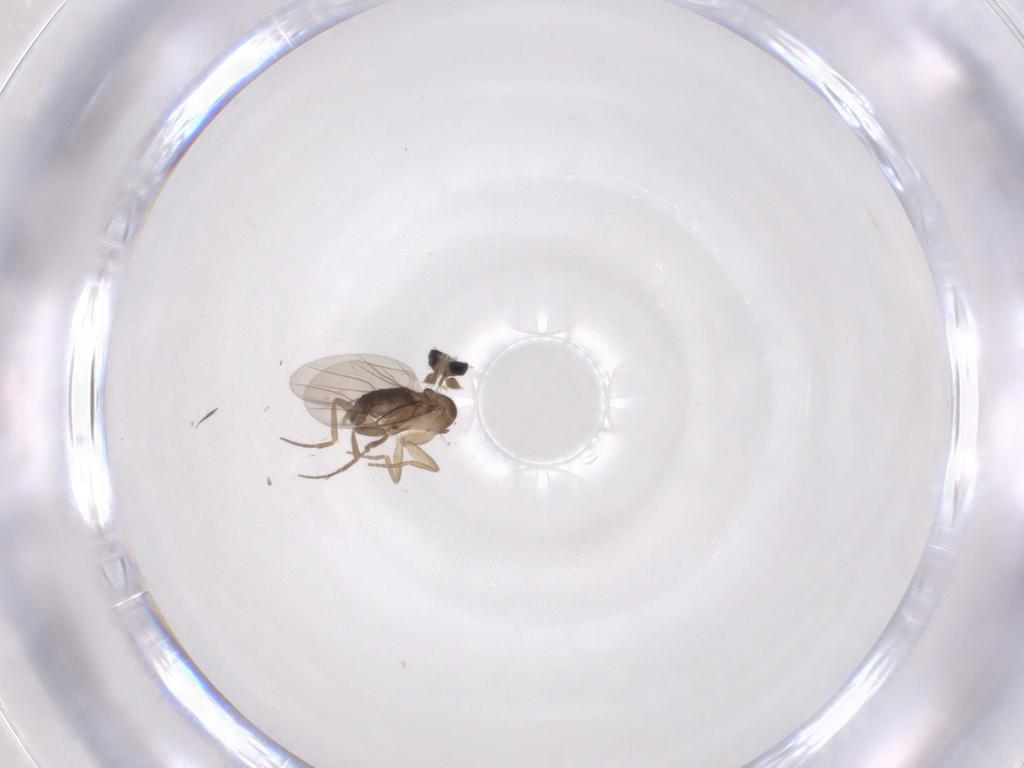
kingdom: Animalia
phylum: Arthropoda
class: Insecta
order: Diptera
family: Phoridae
